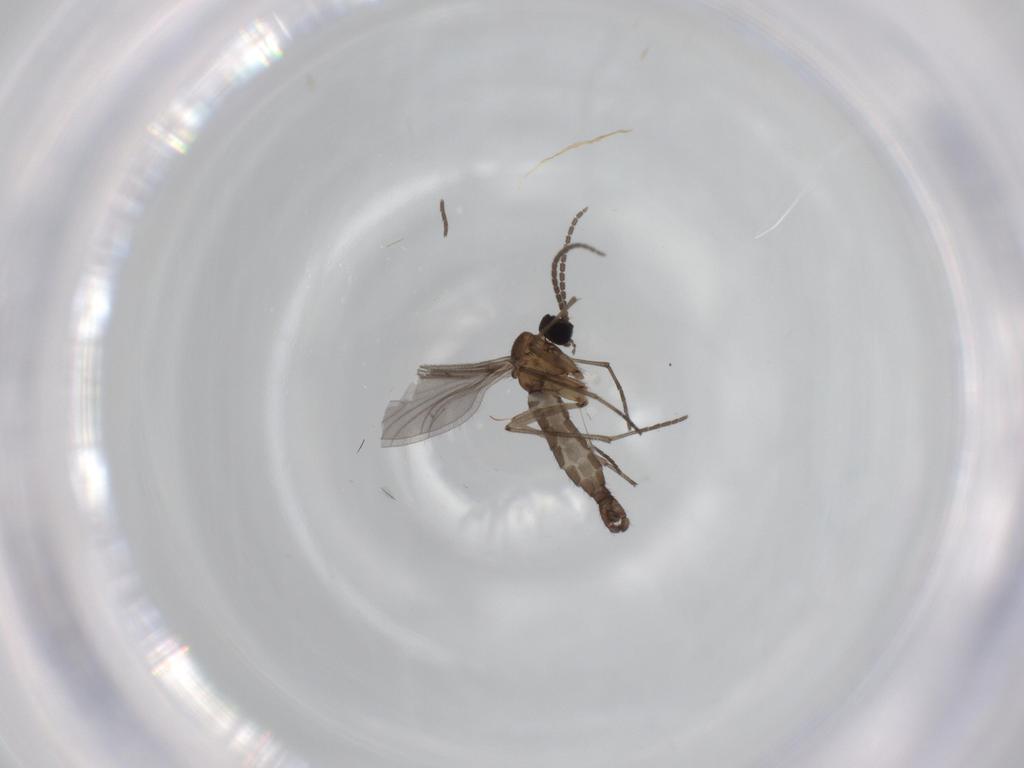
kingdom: Animalia
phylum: Arthropoda
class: Insecta
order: Diptera
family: Sciaridae
